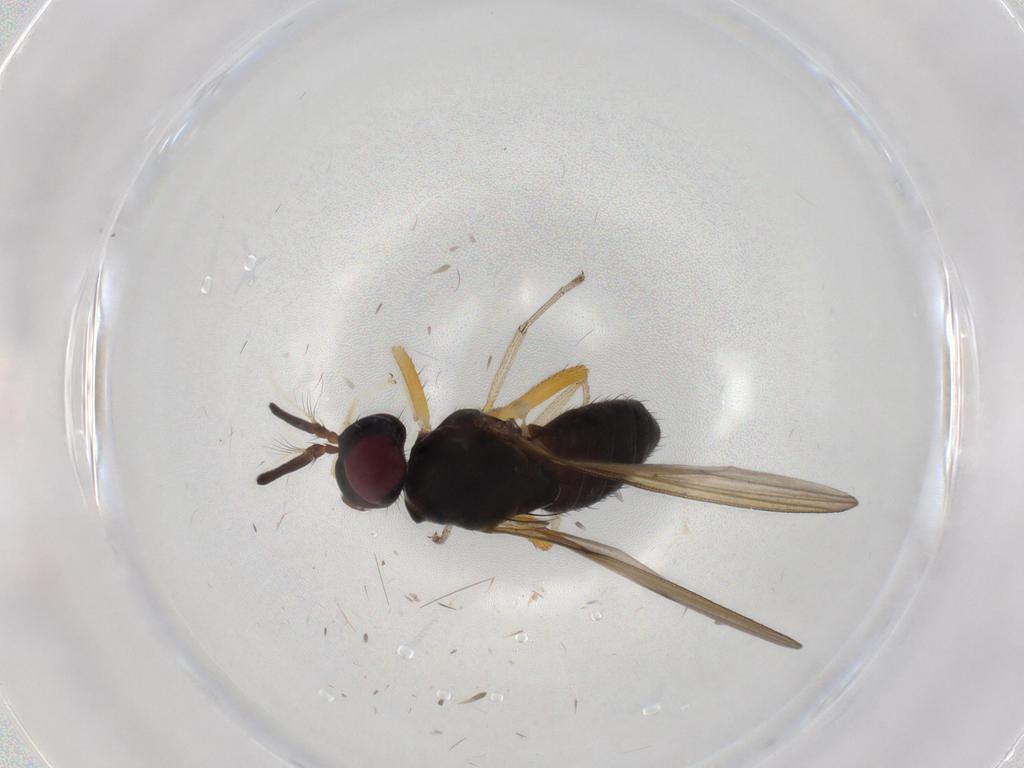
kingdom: Animalia
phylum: Arthropoda
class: Insecta
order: Diptera
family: Lauxaniidae
